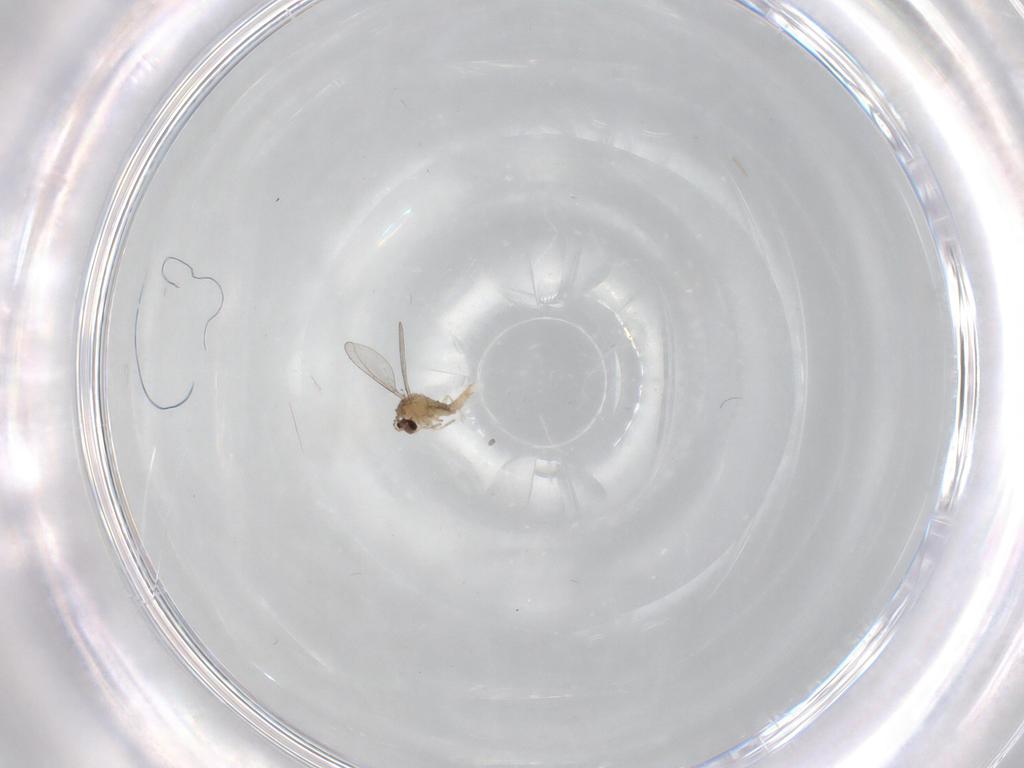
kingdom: Animalia
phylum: Arthropoda
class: Insecta
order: Diptera
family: Cecidomyiidae
